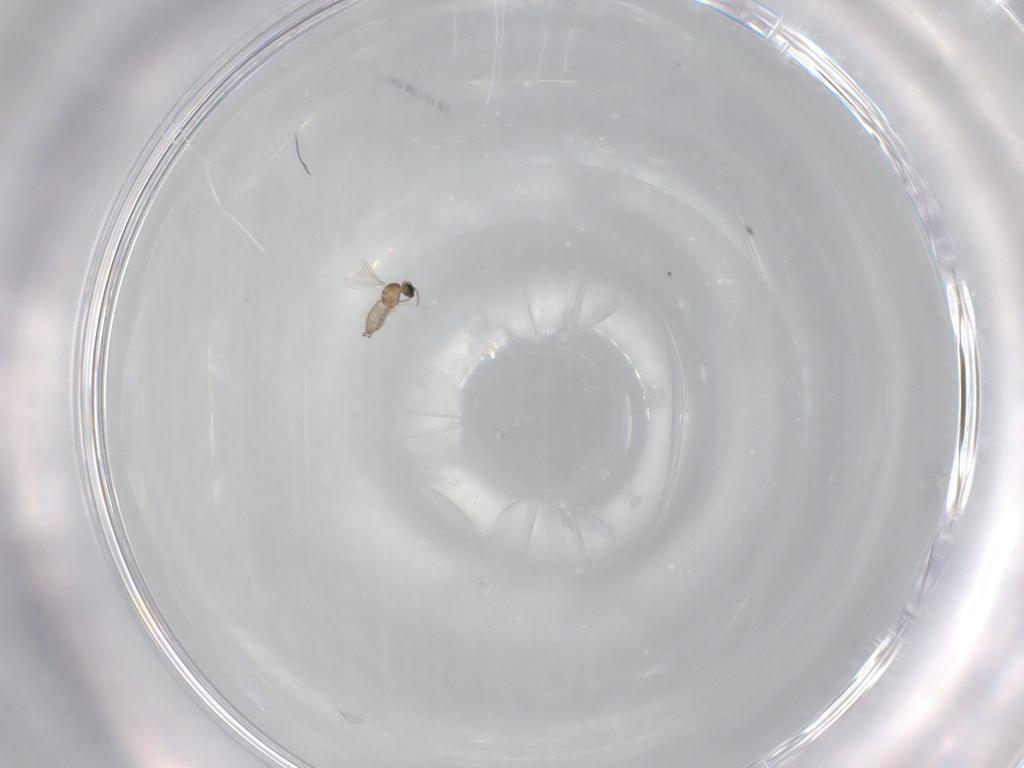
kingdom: Animalia
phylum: Arthropoda
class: Insecta
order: Diptera
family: Cecidomyiidae
